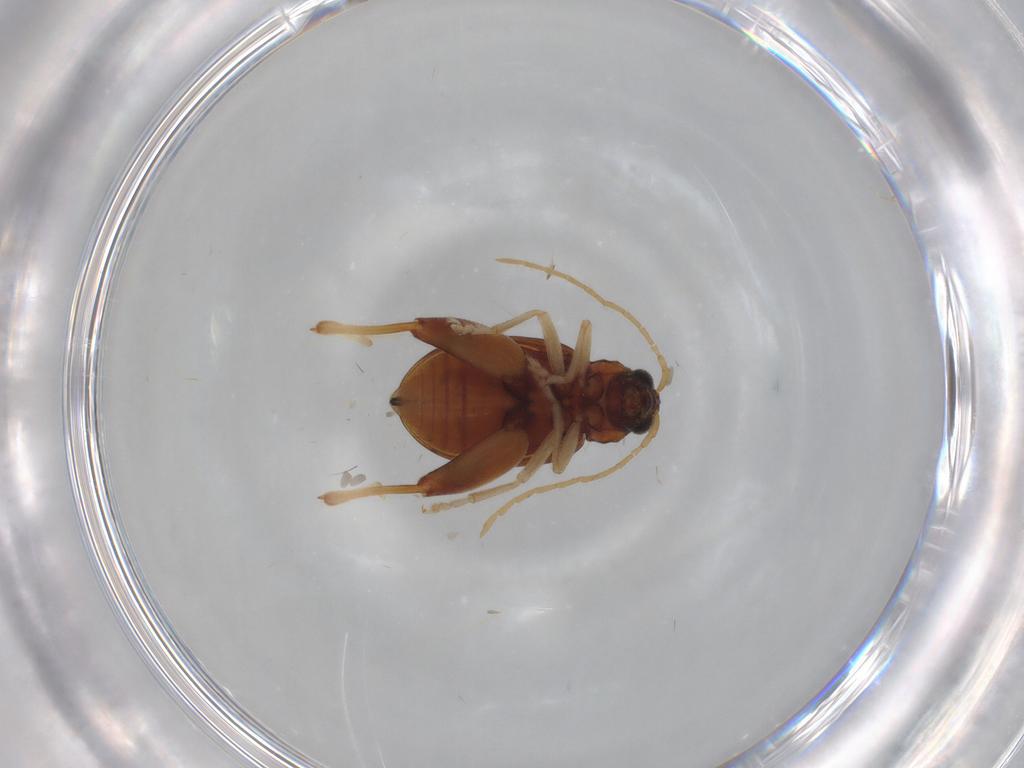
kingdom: Animalia
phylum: Arthropoda
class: Insecta
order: Coleoptera
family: Chrysomelidae
